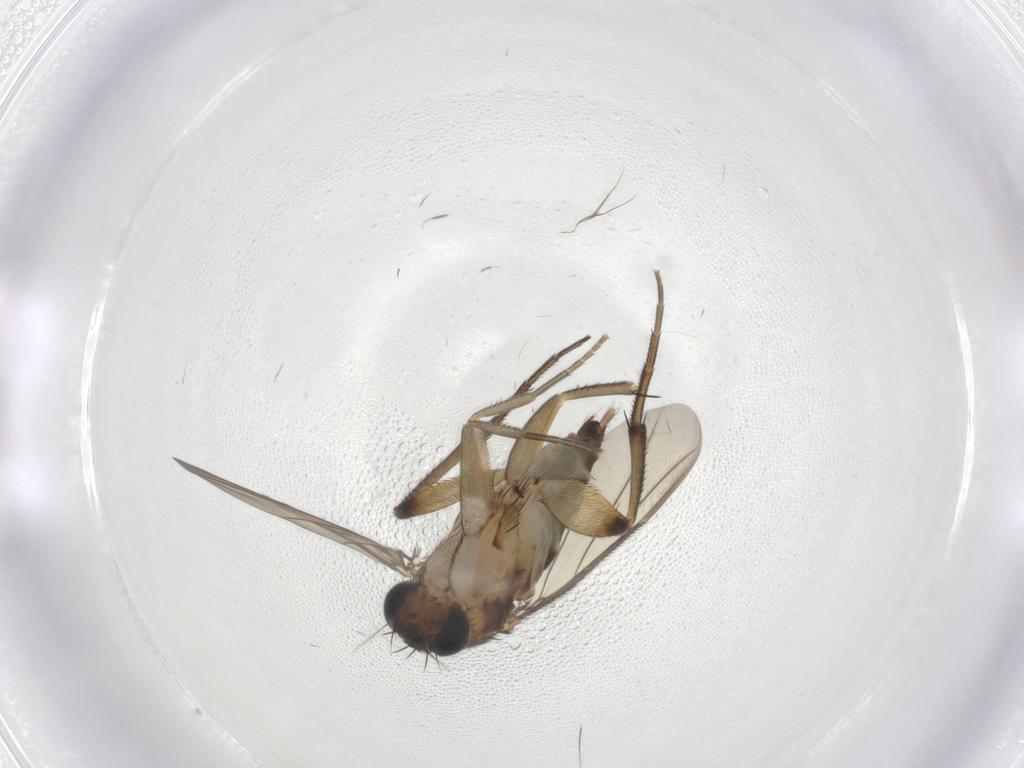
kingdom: Animalia
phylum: Arthropoda
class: Insecta
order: Diptera
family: Phoridae
